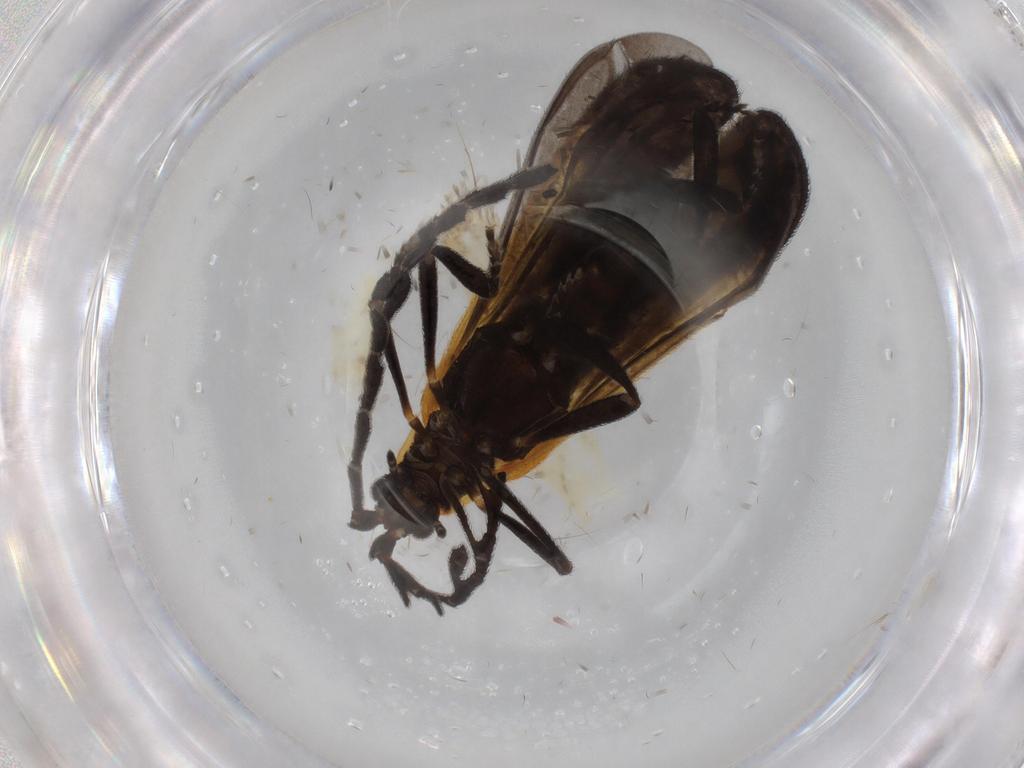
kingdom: Animalia
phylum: Arthropoda
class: Insecta
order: Coleoptera
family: Lycidae
